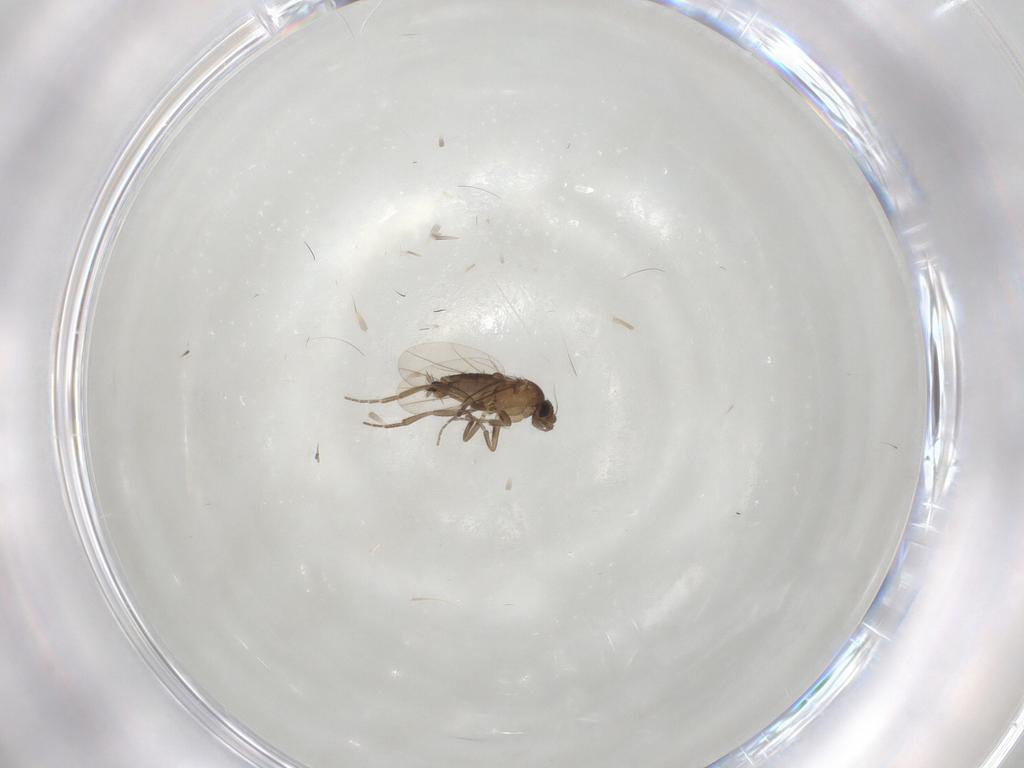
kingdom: Animalia
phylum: Arthropoda
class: Insecta
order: Diptera
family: Phoridae
